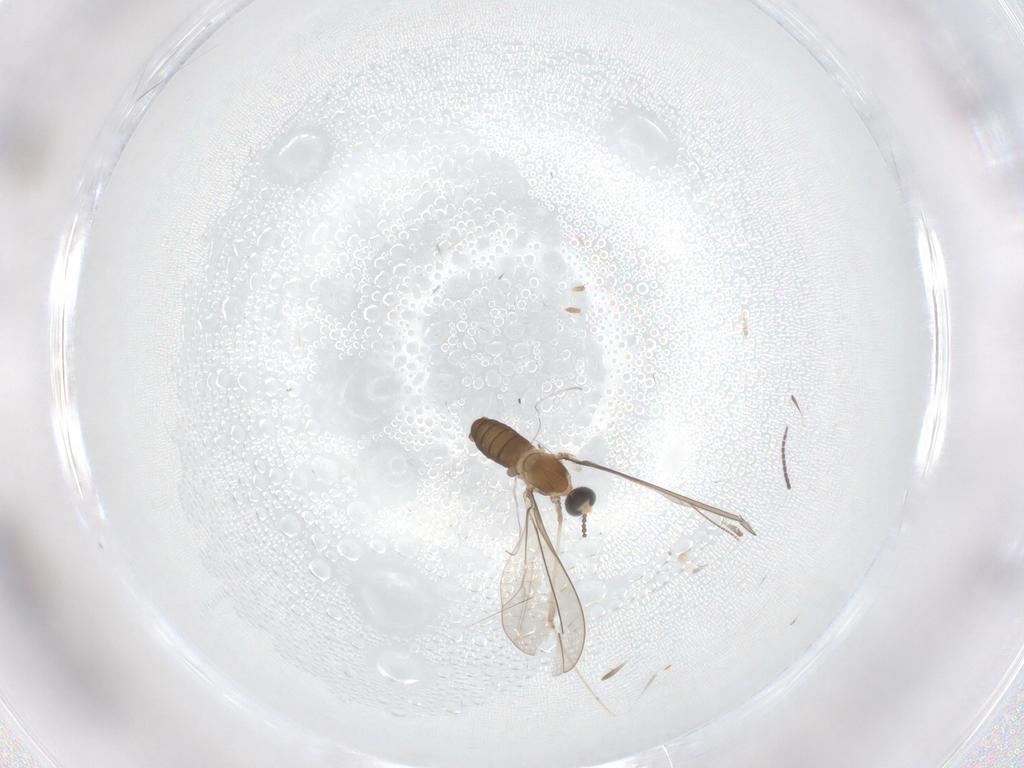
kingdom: Animalia
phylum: Arthropoda
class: Insecta
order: Diptera
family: Sciaridae
